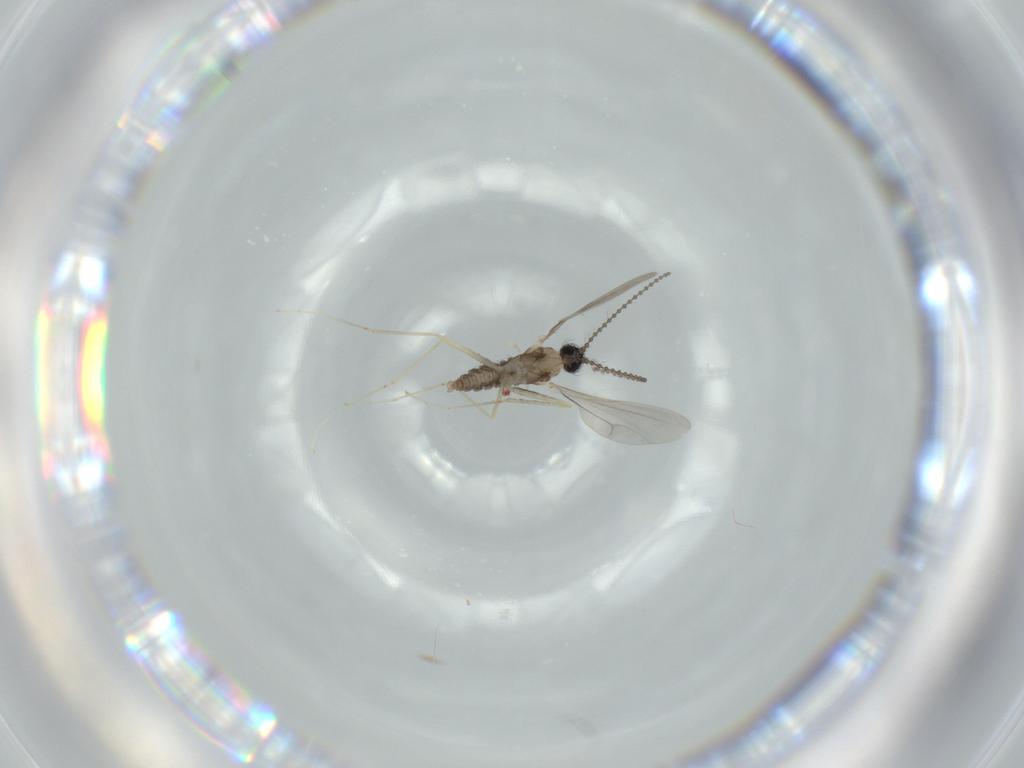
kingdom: Animalia
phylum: Arthropoda
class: Insecta
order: Diptera
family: Cecidomyiidae
